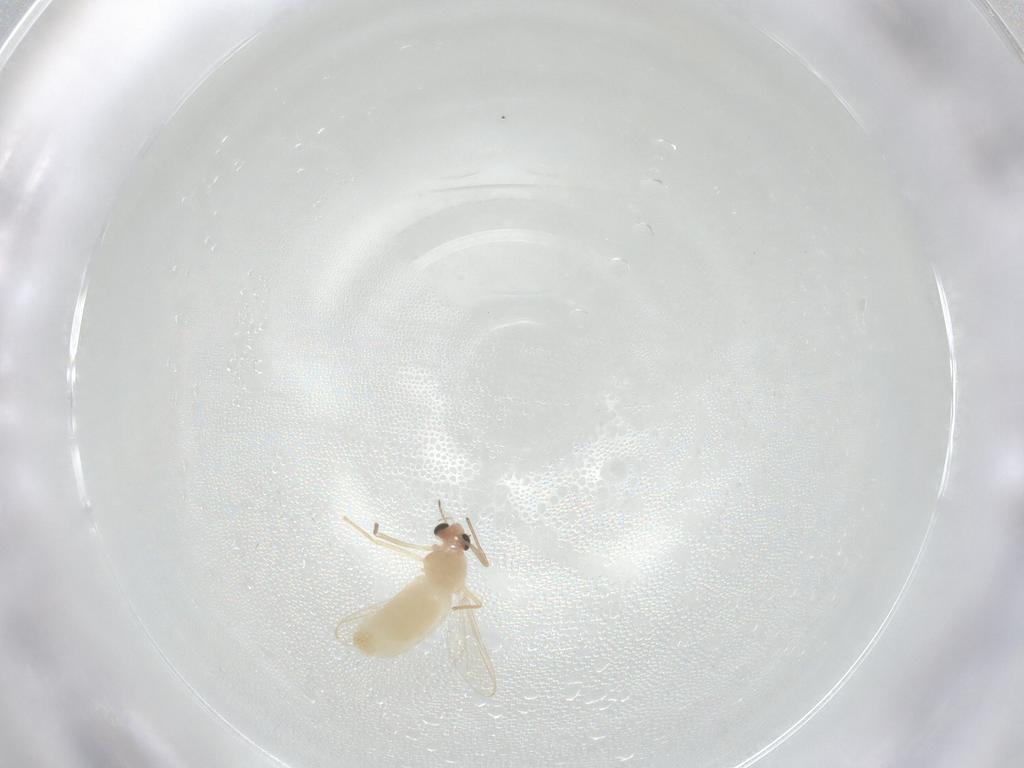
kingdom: Animalia
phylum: Arthropoda
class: Insecta
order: Diptera
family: Chironomidae
